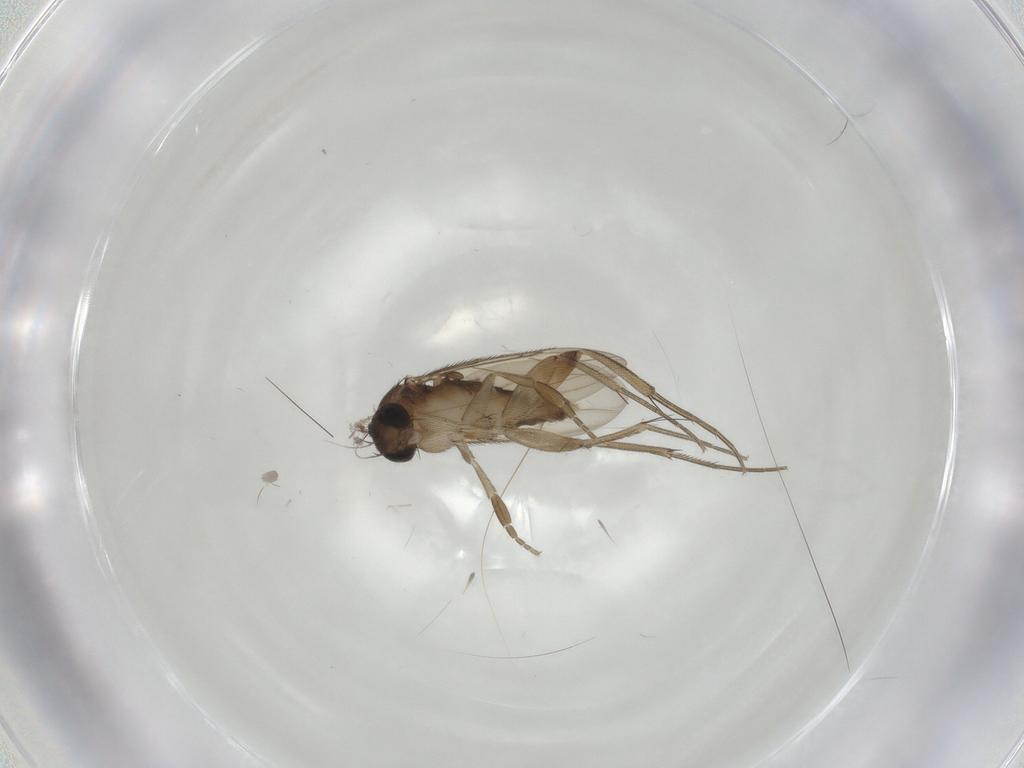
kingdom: Animalia
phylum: Arthropoda
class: Insecta
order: Diptera
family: Phoridae
